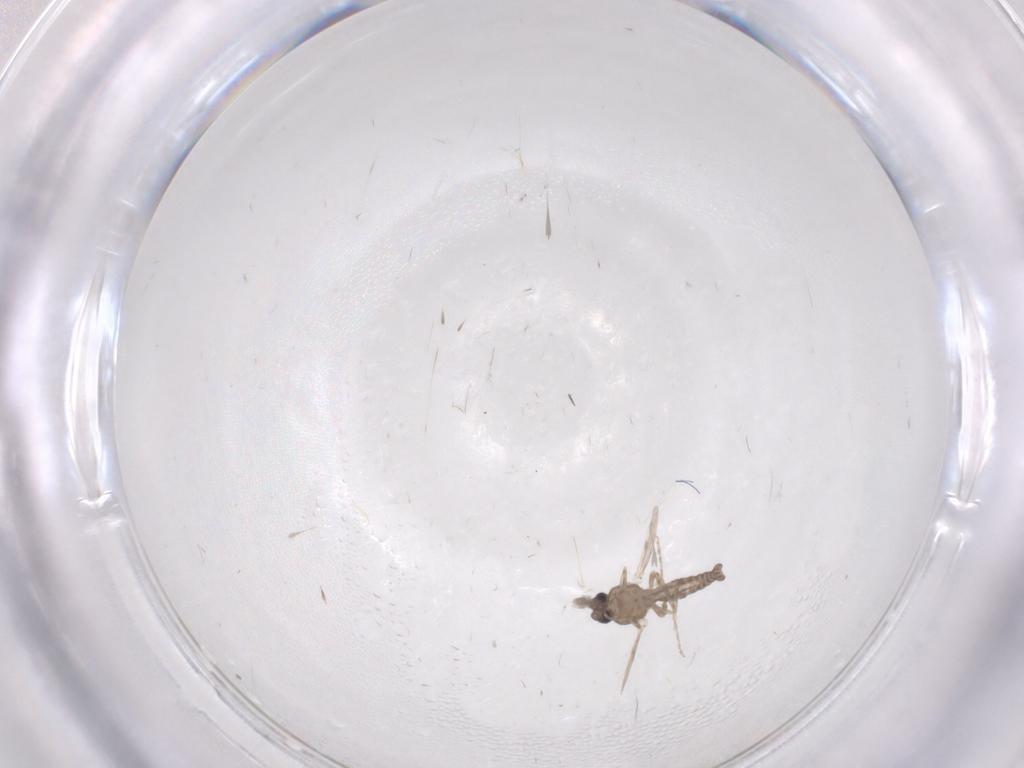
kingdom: Animalia
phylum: Arthropoda
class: Insecta
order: Diptera
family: Ceratopogonidae
